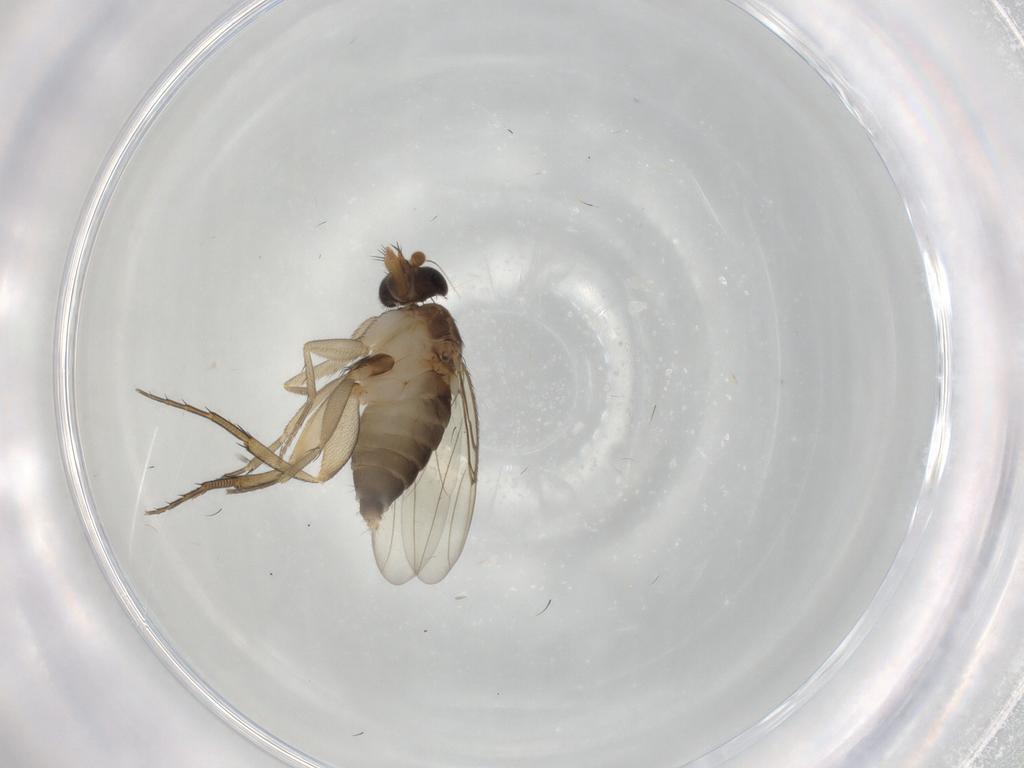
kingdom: Animalia
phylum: Arthropoda
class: Insecta
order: Diptera
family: Phoridae
